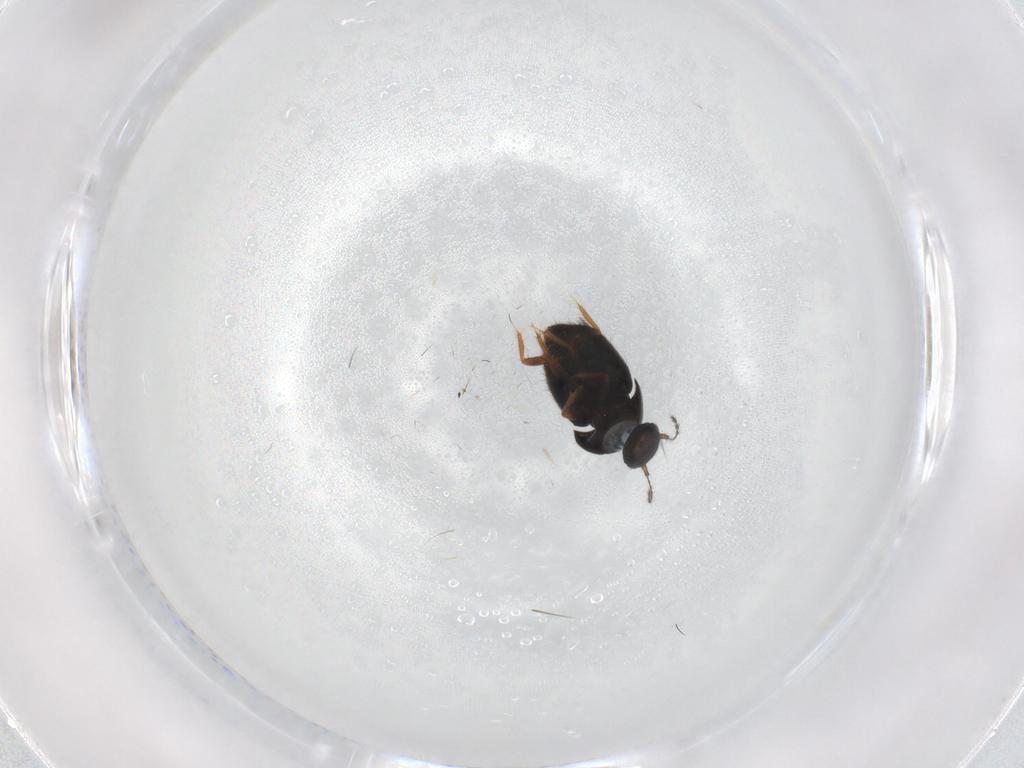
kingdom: Animalia
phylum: Arthropoda
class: Insecta
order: Coleoptera
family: Ptiliidae
